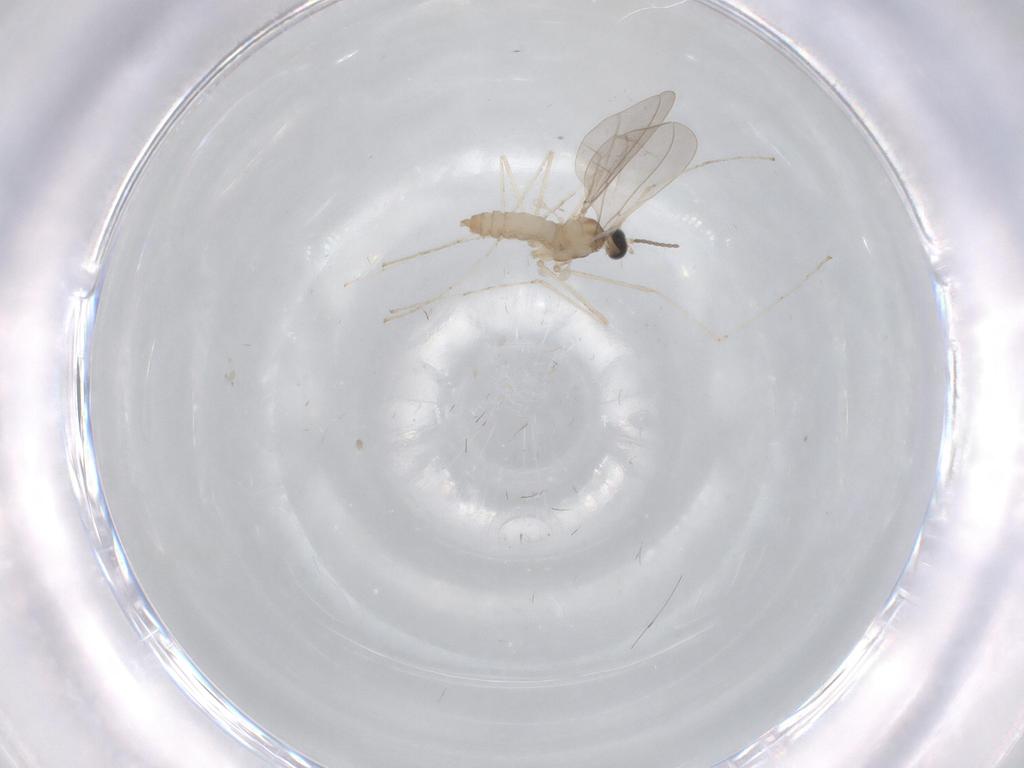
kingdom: Animalia
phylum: Arthropoda
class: Insecta
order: Diptera
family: Cecidomyiidae
